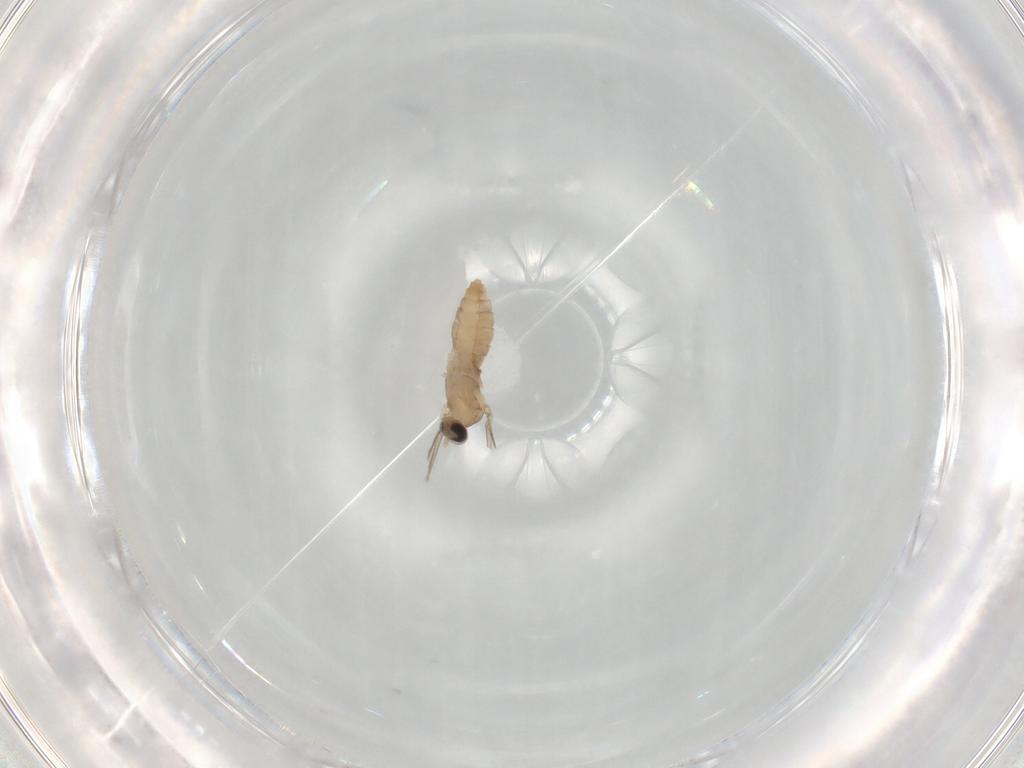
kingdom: Animalia
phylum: Arthropoda
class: Insecta
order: Diptera
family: Cecidomyiidae
